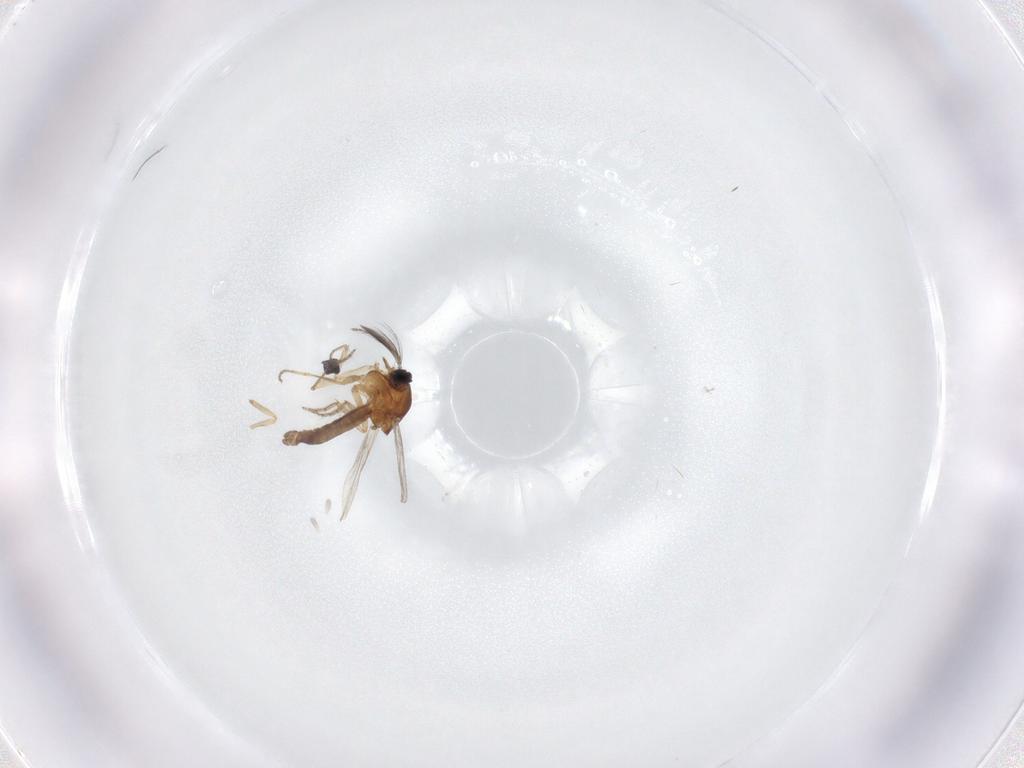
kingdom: Animalia
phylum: Arthropoda
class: Insecta
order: Diptera
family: Ceratopogonidae
